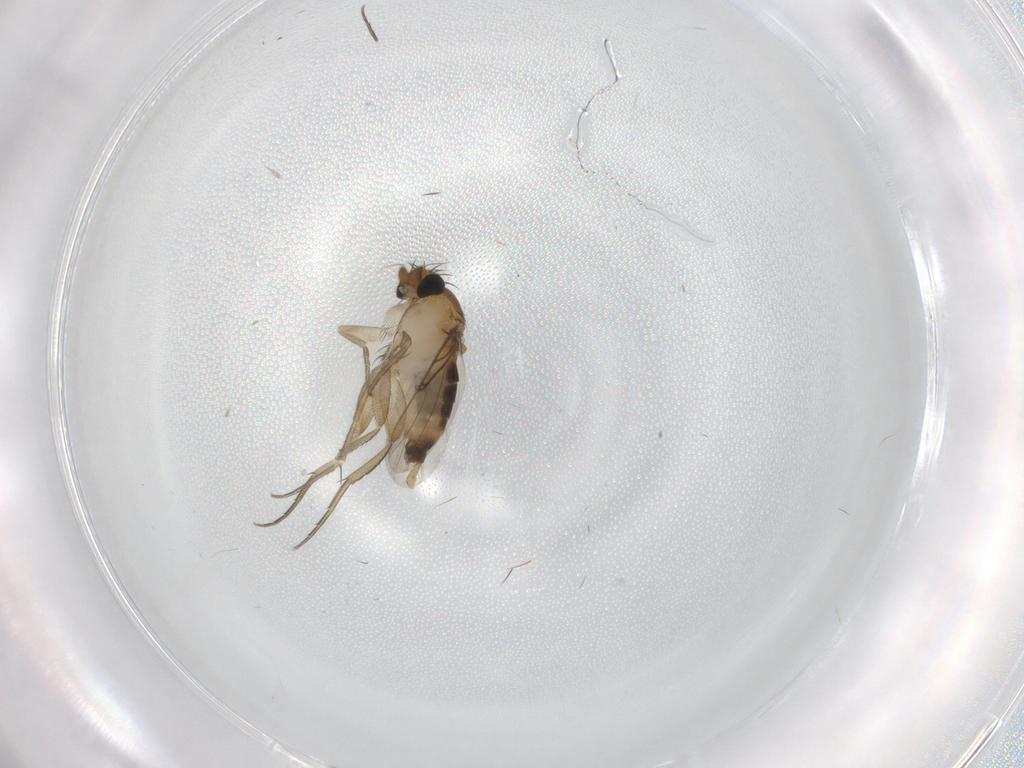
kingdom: Animalia
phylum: Arthropoda
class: Insecta
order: Diptera
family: Phoridae
